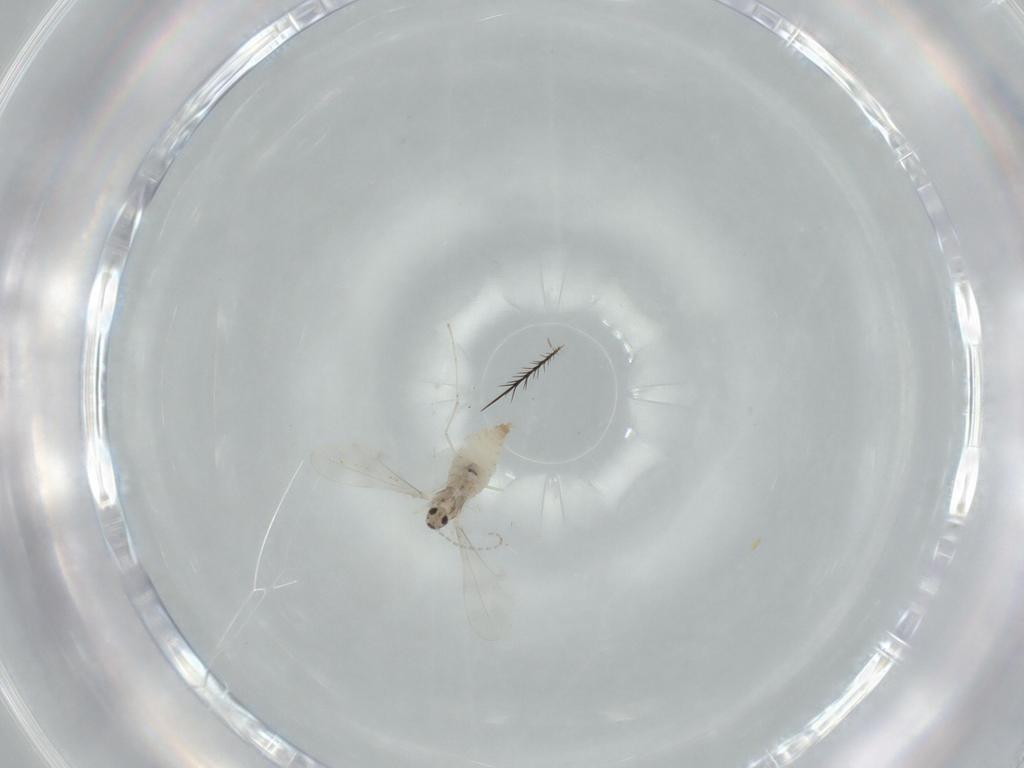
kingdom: Animalia
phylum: Arthropoda
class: Insecta
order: Diptera
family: Cecidomyiidae
